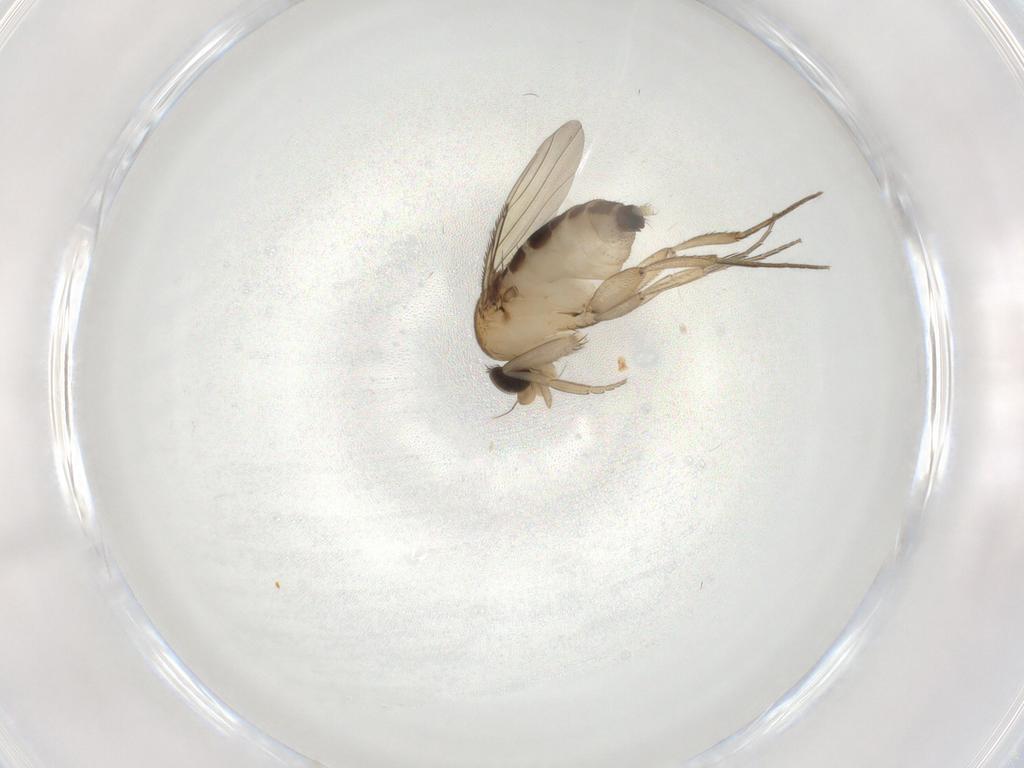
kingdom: Animalia
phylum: Arthropoda
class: Insecta
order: Diptera
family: Phoridae
